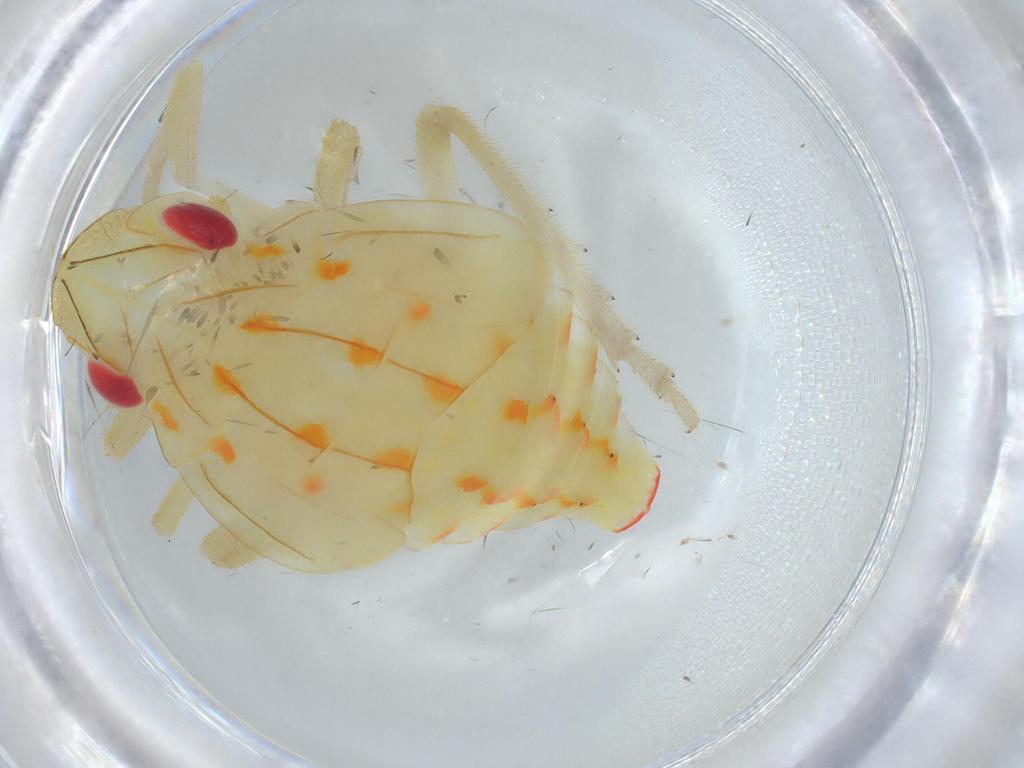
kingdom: Animalia
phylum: Arthropoda
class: Insecta
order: Hemiptera
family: Tropiduchidae
